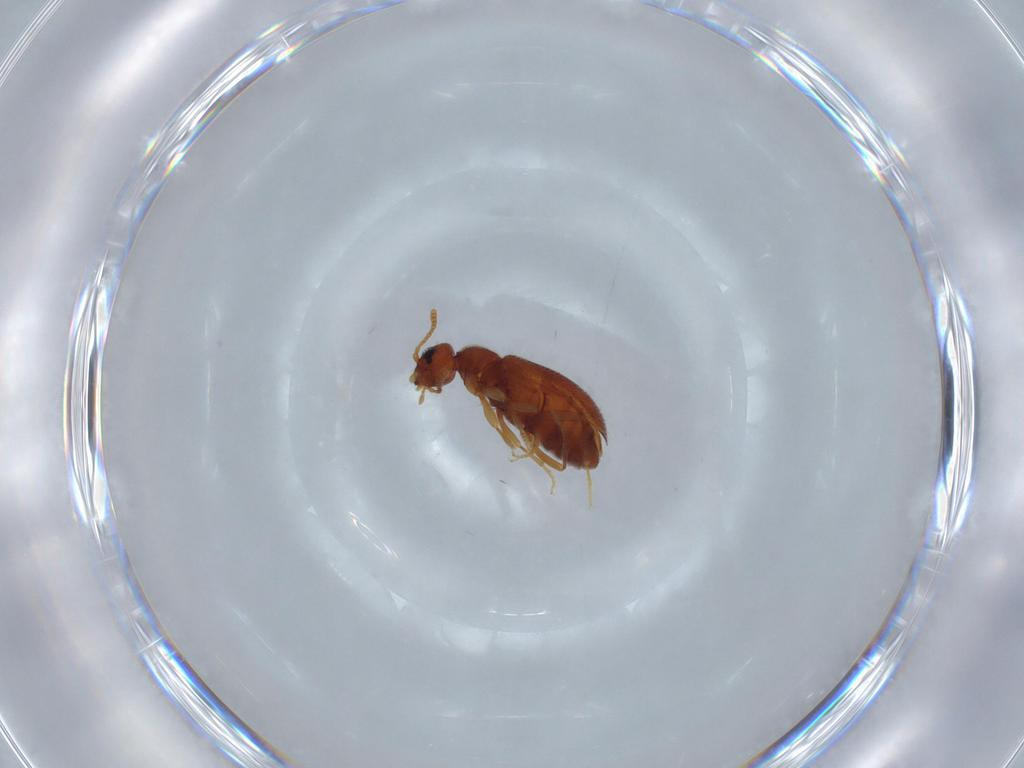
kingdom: Animalia
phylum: Arthropoda
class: Insecta
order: Coleoptera
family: Anthicidae
